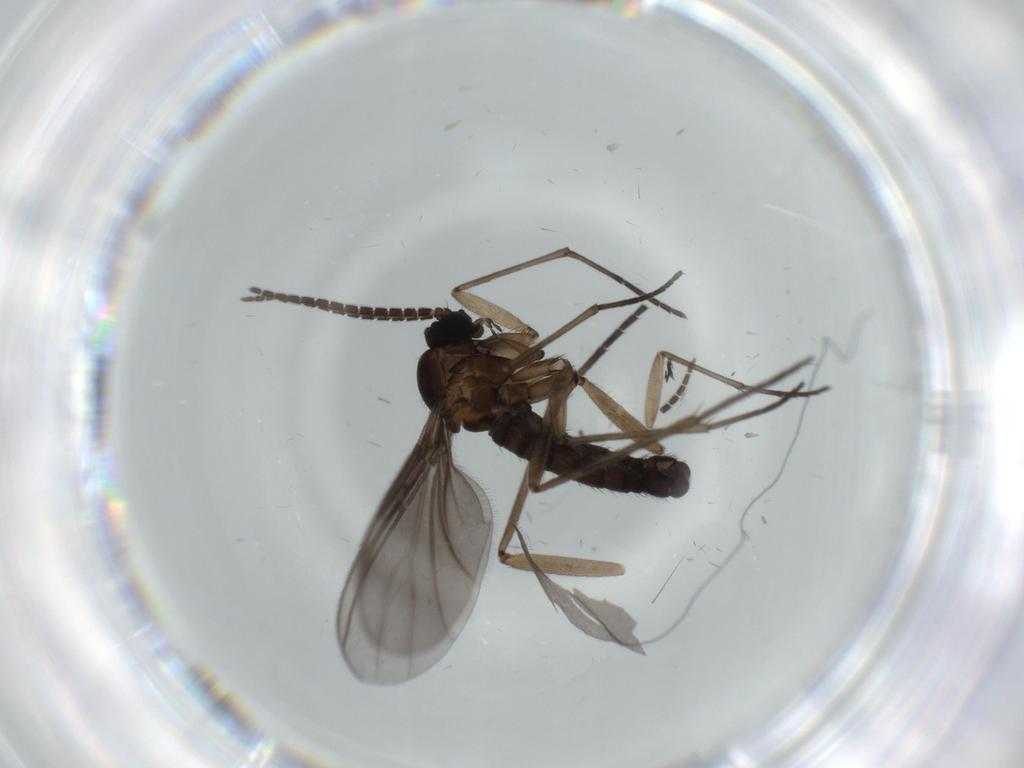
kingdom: Animalia
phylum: Arthropoda
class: Insecta
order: Diptera
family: Sciaridae
